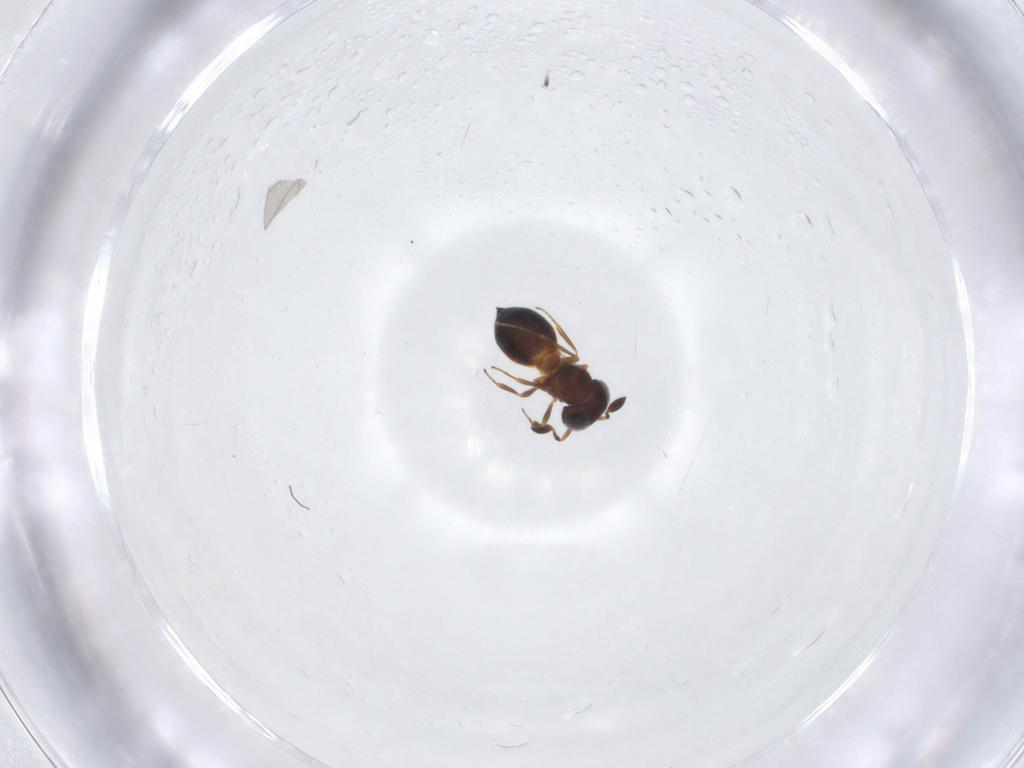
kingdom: Animalia
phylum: Arthropoda
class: Insecta
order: Hymenoptera
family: Scelionidae
